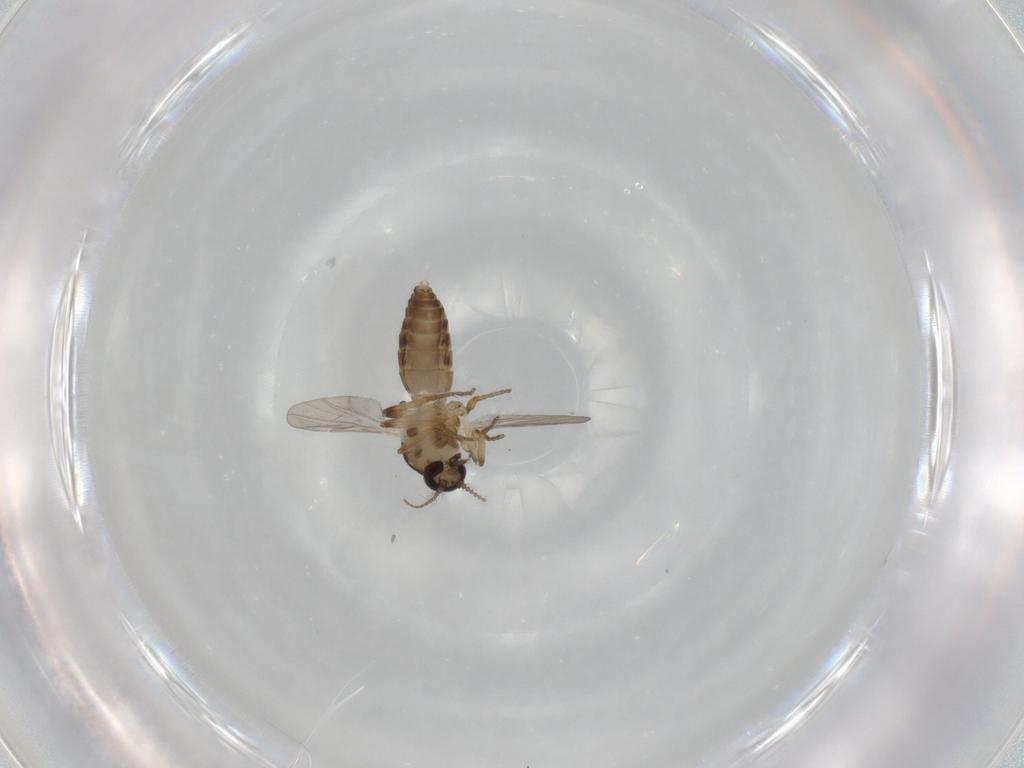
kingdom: Animalia
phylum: Arthropoda
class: Insecta
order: Diptera
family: Ceratopogonidae
